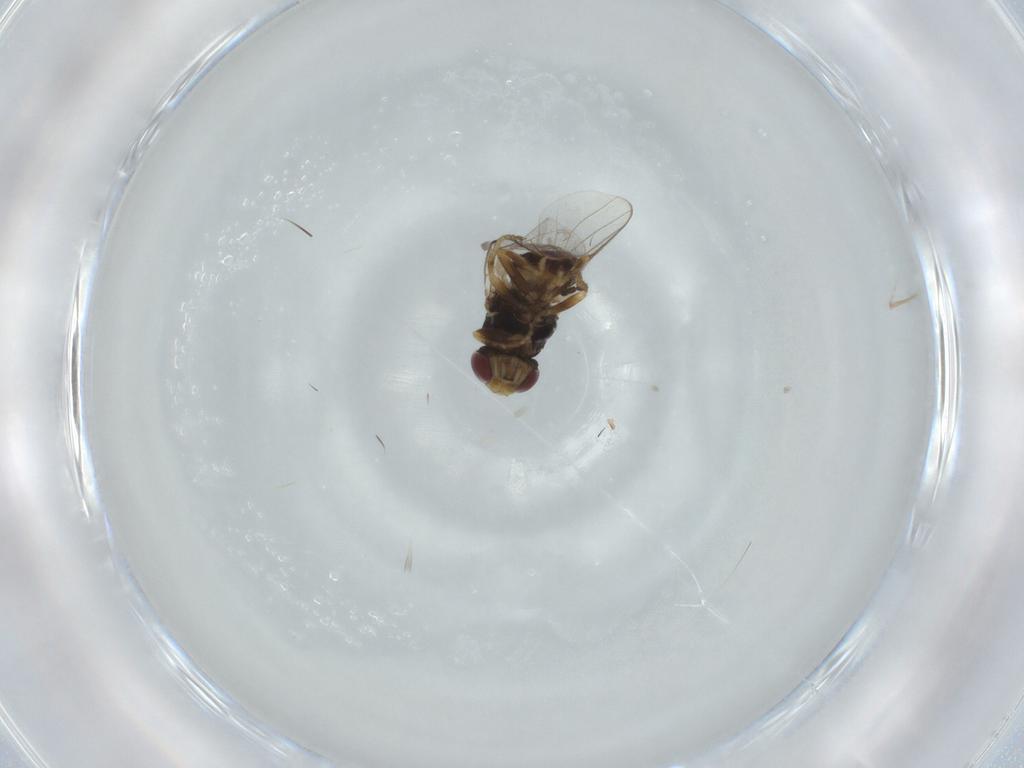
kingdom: Animalia
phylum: Arthropoda
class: Insecta
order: Diptera
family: Chloropidae
